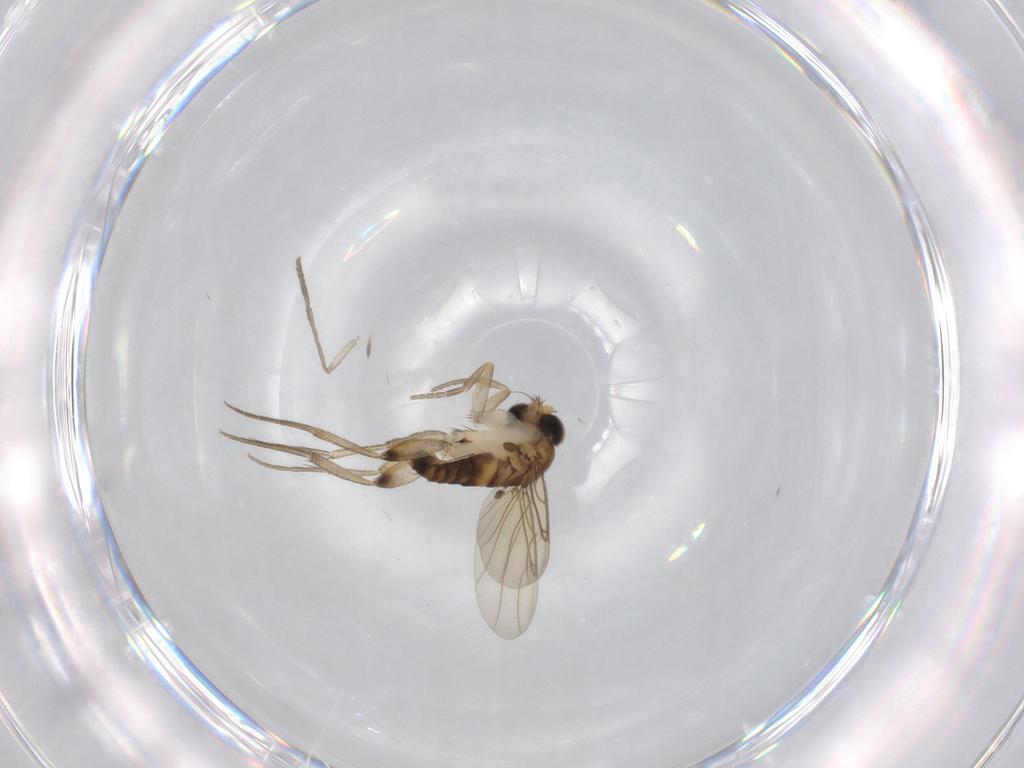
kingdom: Animalia
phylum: Arthropoda
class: Insecta
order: Diptera
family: Phoridae
